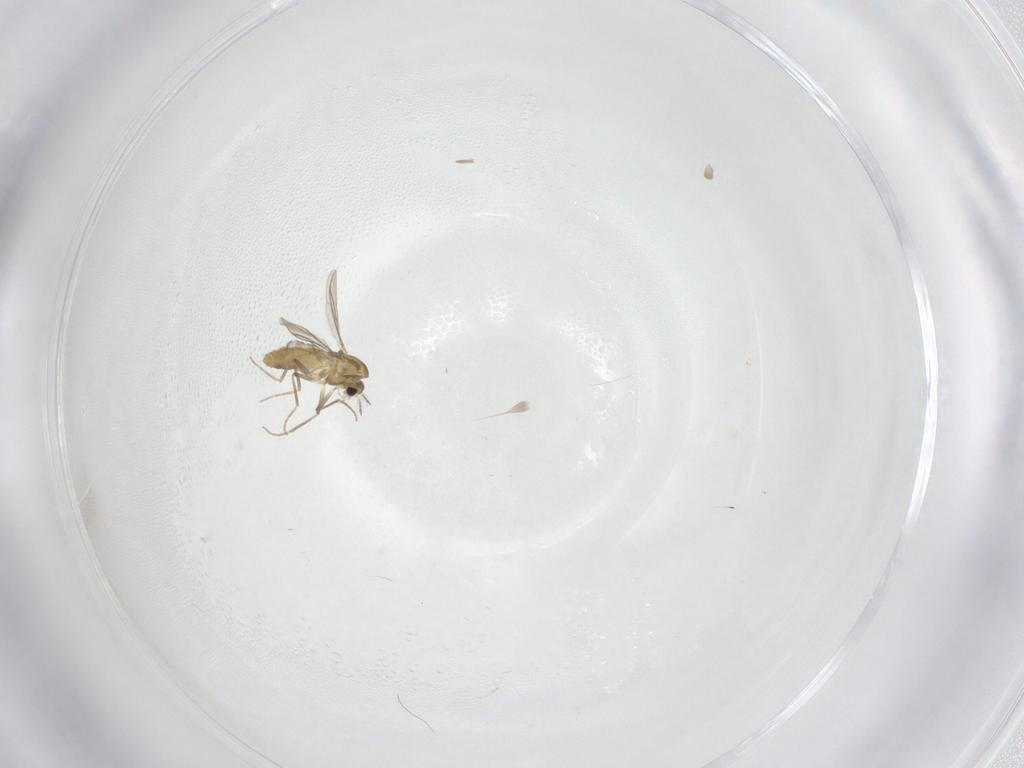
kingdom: Animalia
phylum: Arthropoda
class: Insecta
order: Diptera
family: Chironomidae
